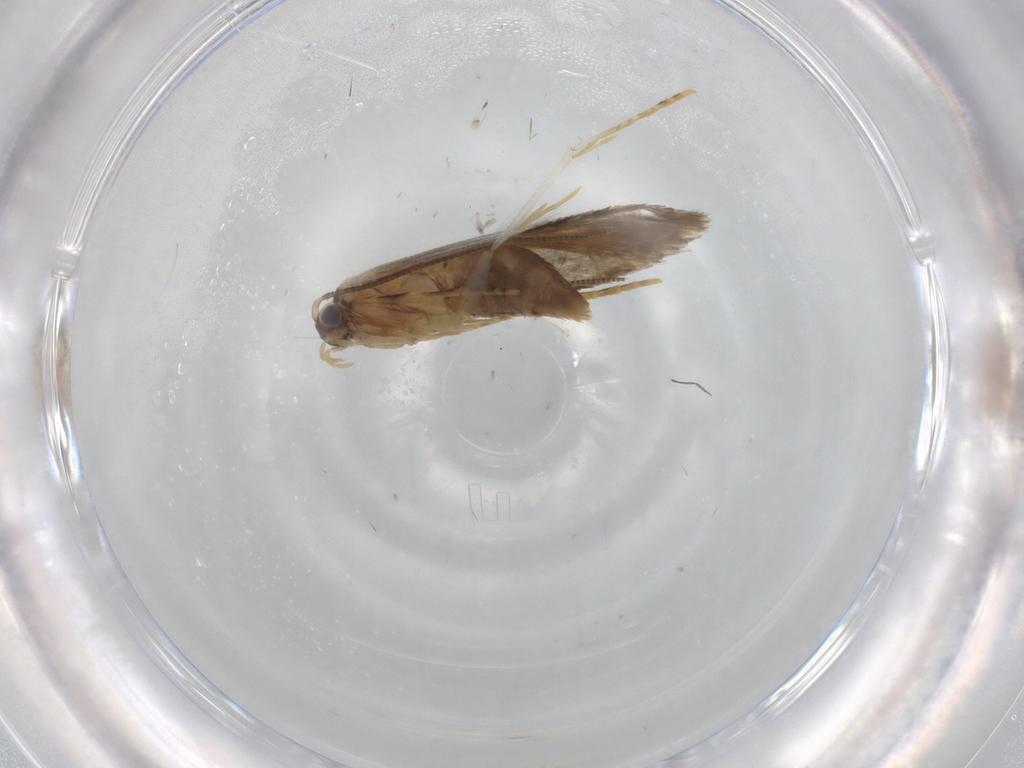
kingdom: Animalia
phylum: Arthropoda
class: Insecta
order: Lepidoptera
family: Tineidae
